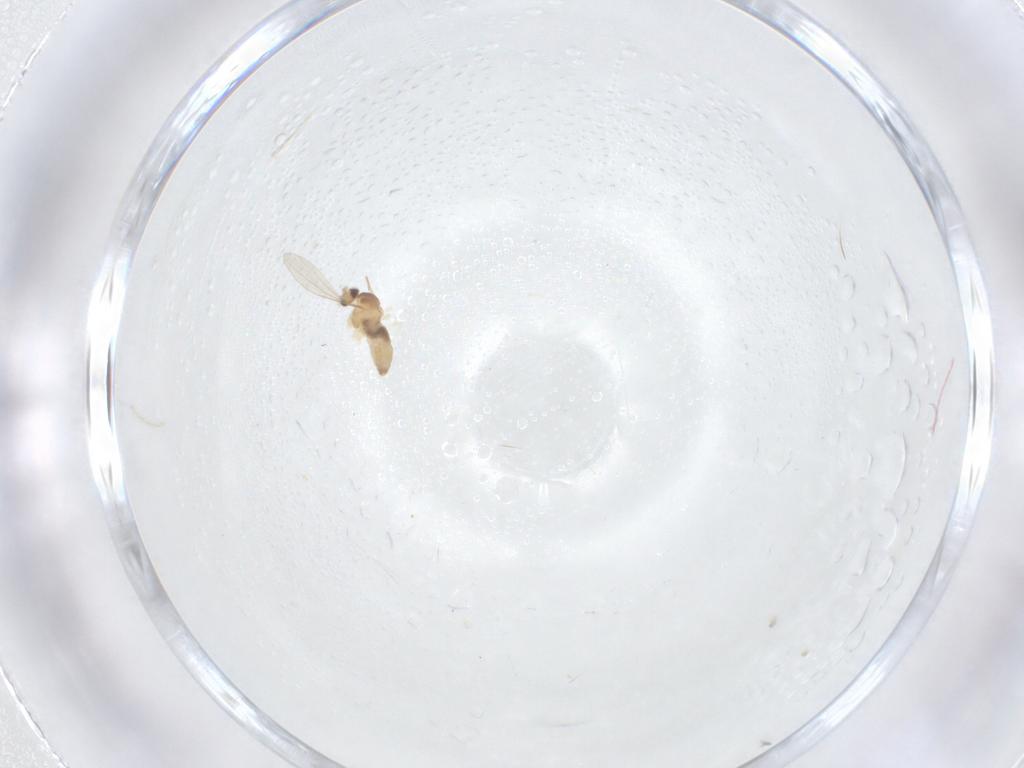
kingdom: Animalia
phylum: Arthropoda
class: Insecta
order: Diptera
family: Cecidomyiidae
